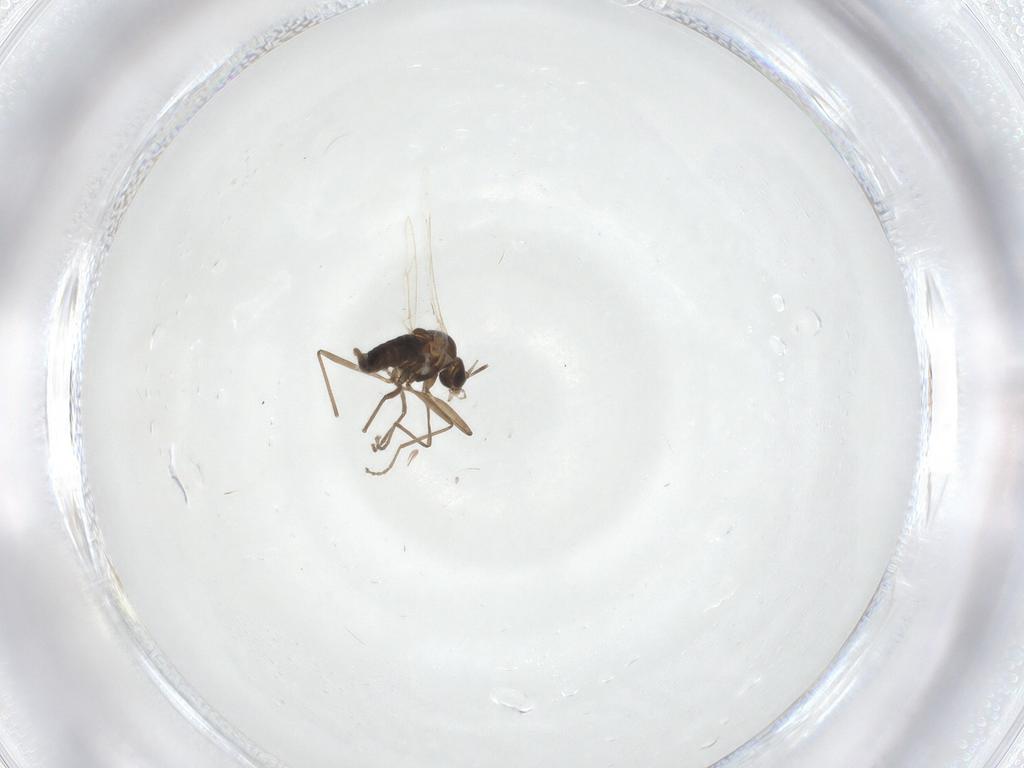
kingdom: Animalia
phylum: Arthropoda
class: Insecta
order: Diptera
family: Cecidomyiidae
